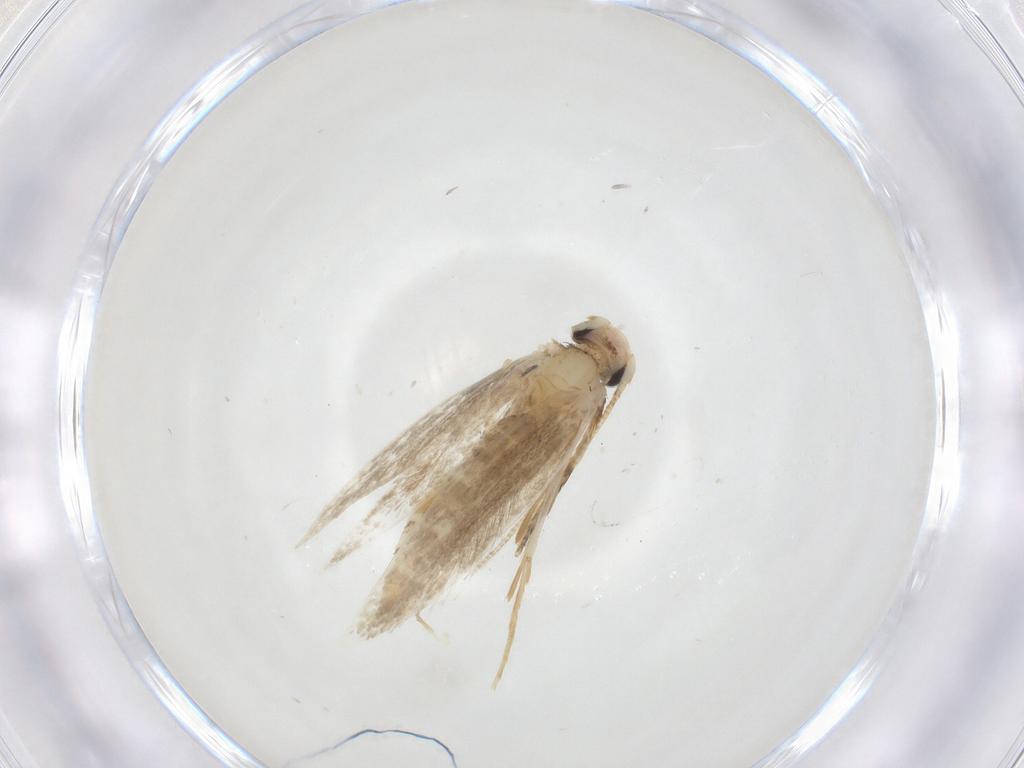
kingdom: Animalia
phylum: Arthropoda
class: Insecta
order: Lepidoptera
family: Tineidae
